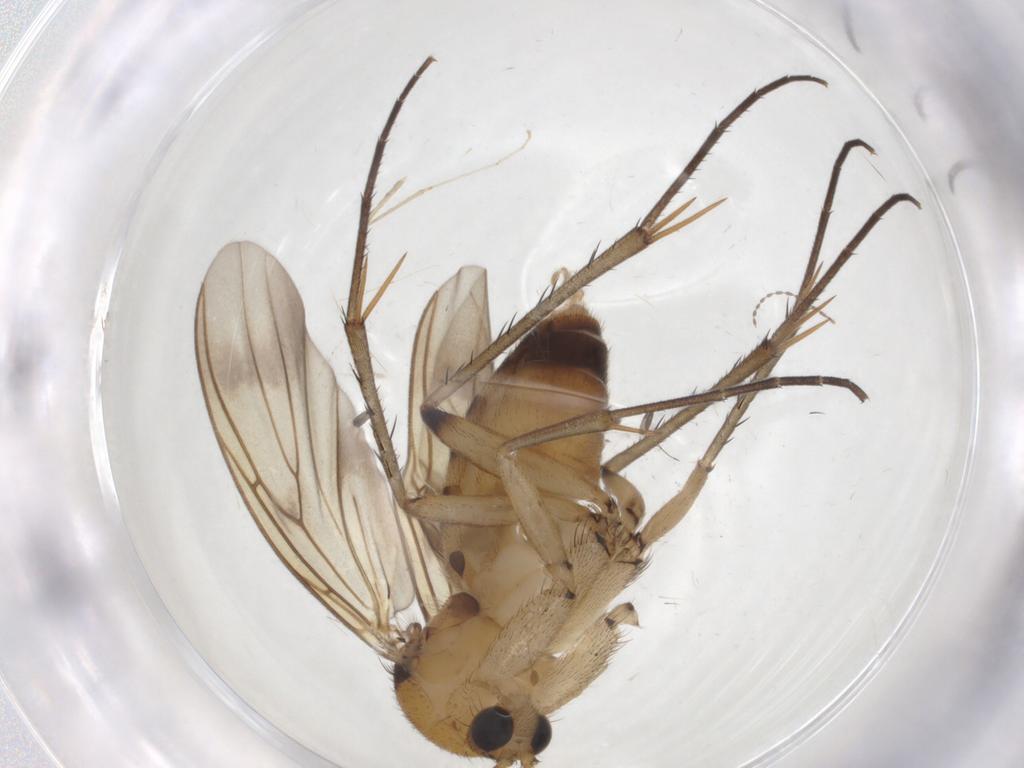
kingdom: Animalia
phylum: Arthropoda
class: Insecta
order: Diptera
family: Mycetophilidae
